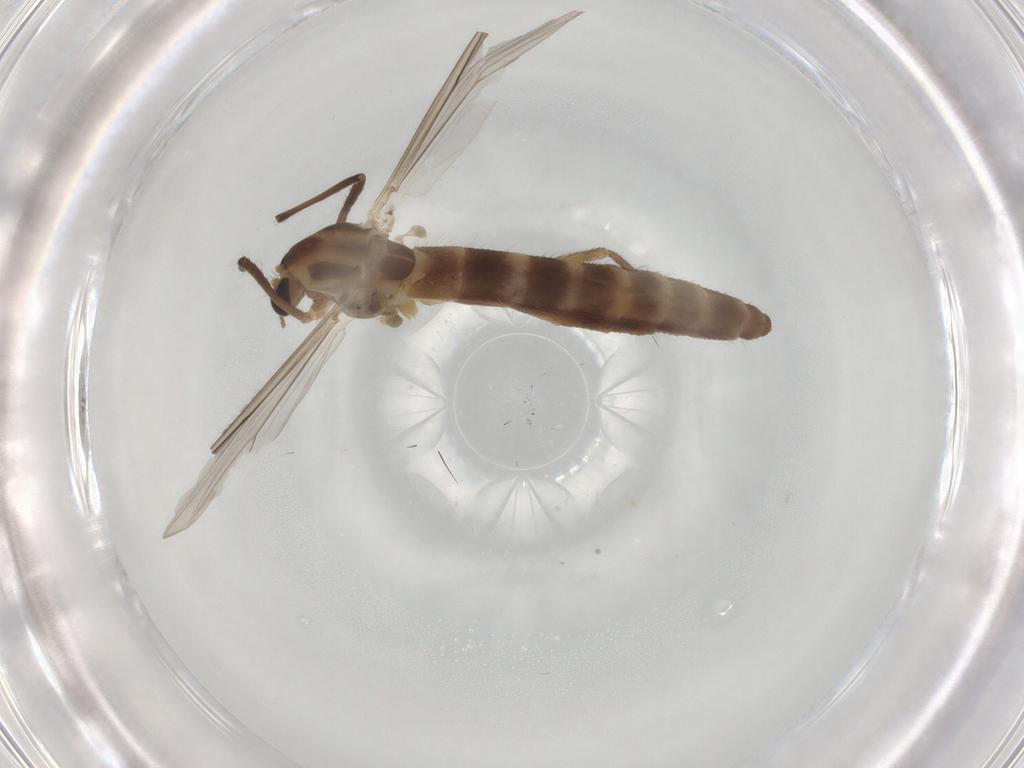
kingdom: Animalia
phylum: Arthropoda
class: Insecta
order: Diptera
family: Chironomidae
